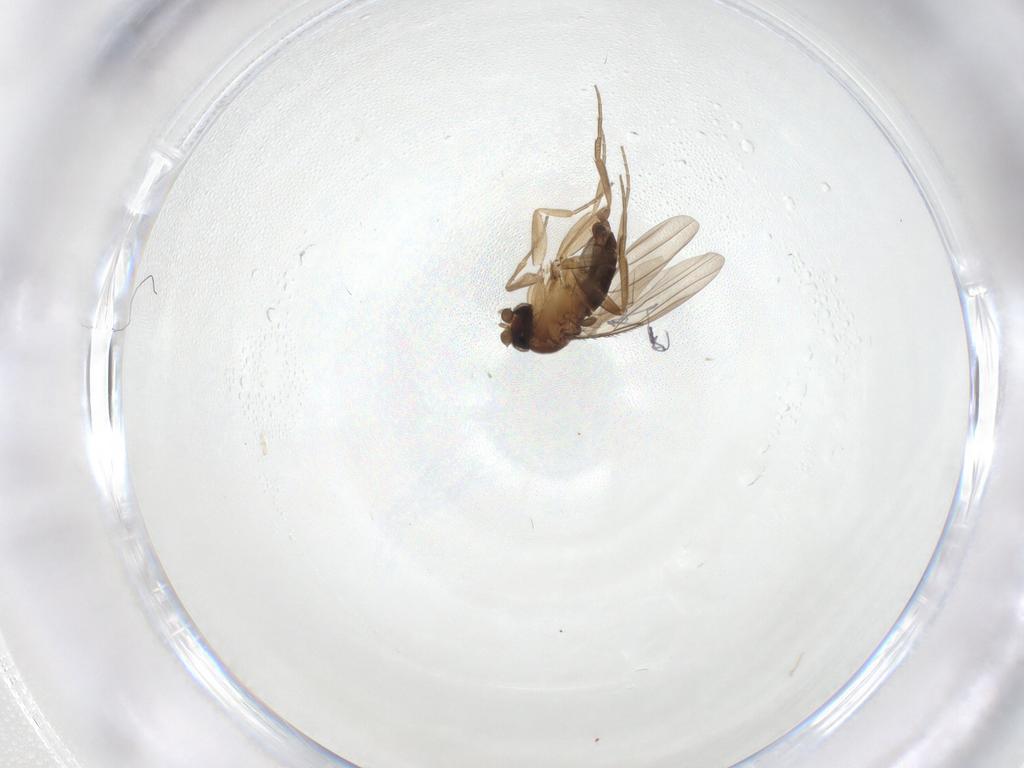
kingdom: Animalia
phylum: Arthropoda
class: Insecta
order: Diptera
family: Phoridae
